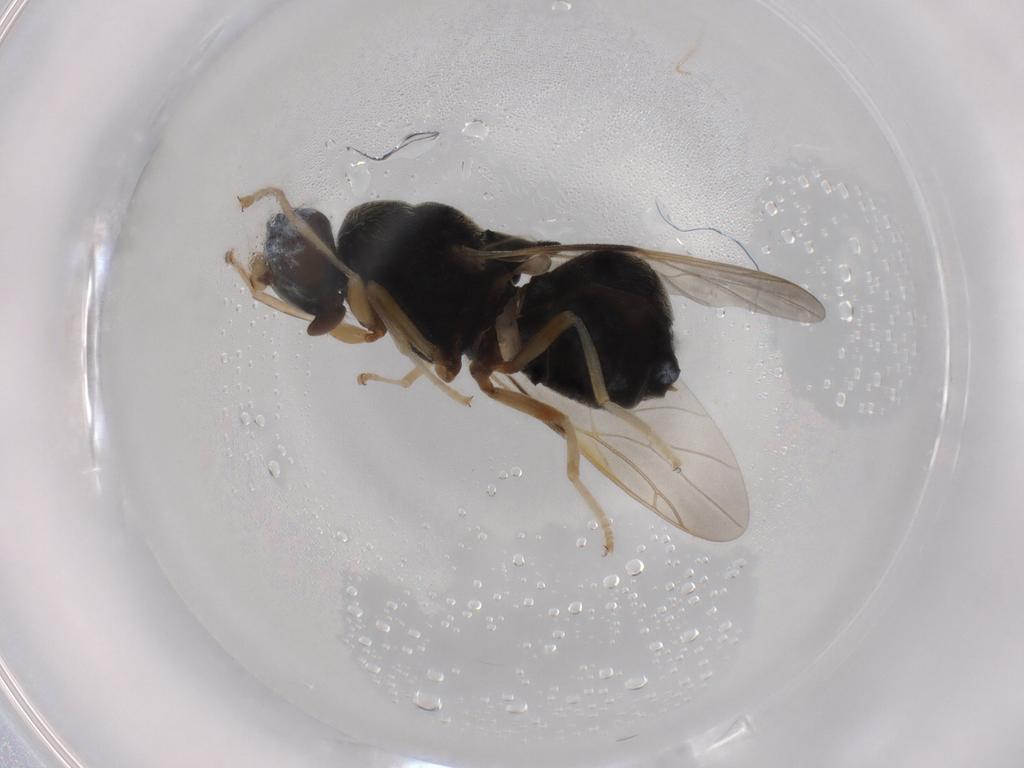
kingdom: Animalia
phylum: Arthropoda
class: Insecta
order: Diptera
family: Stratiomyidae
